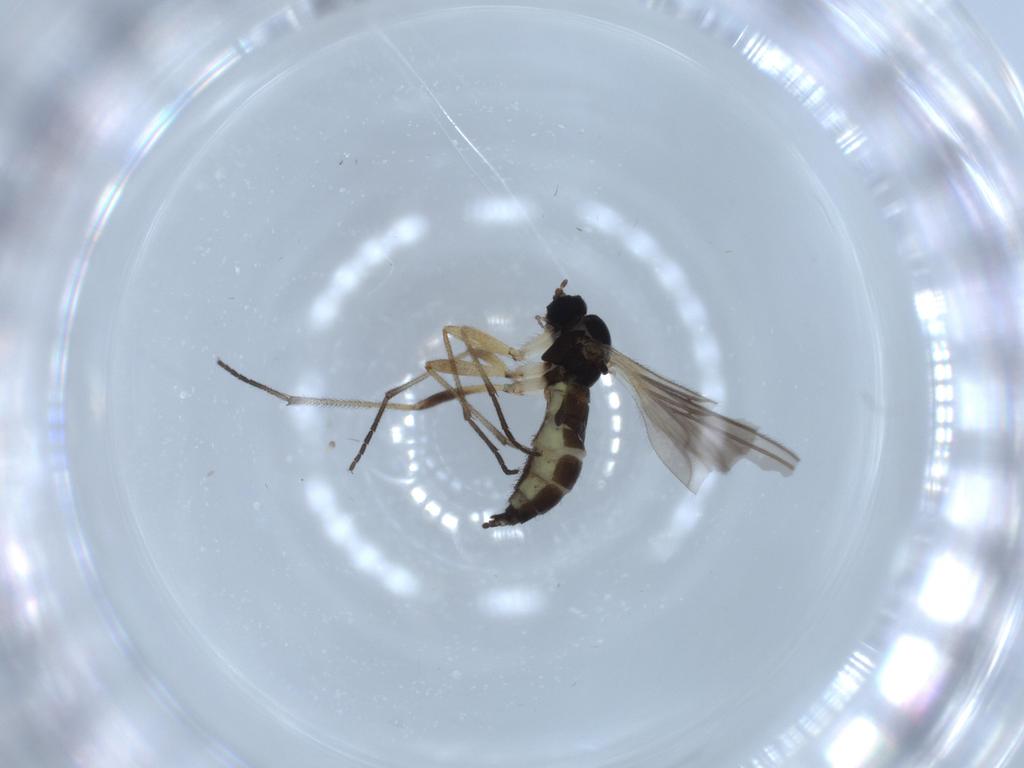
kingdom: Animalia
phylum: Arthropoda
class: Insecta
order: Diptera
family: Sciaridae
